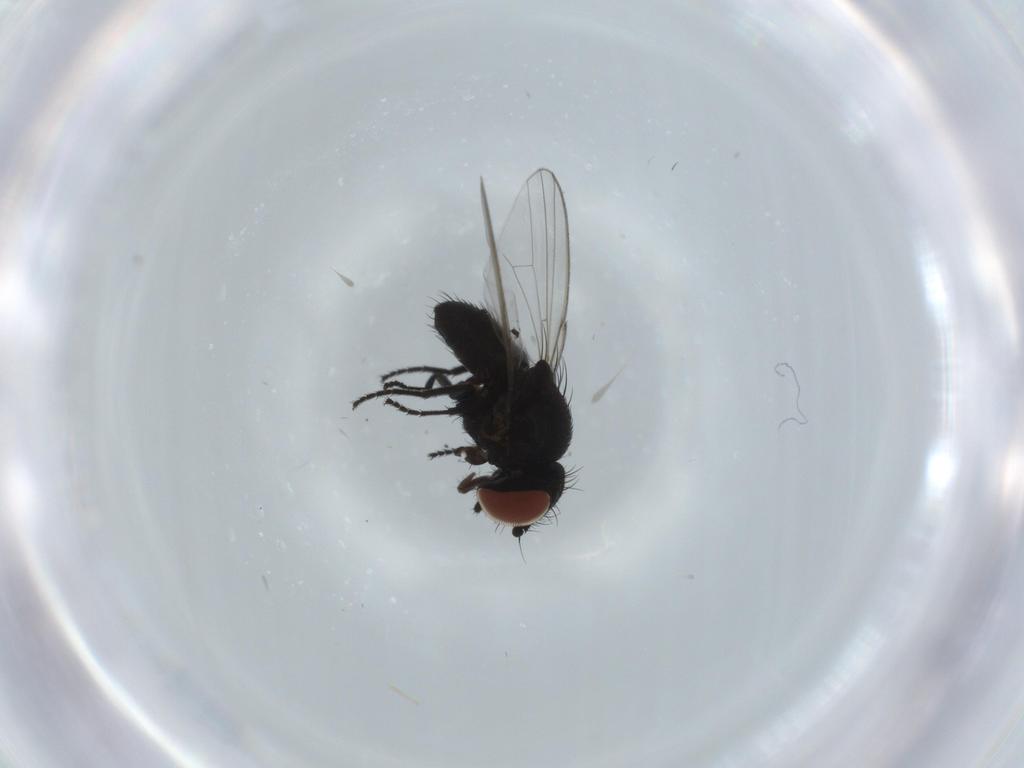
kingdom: Animalia
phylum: Arthropoda
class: Insecta
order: Diptera
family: Milichiidae
